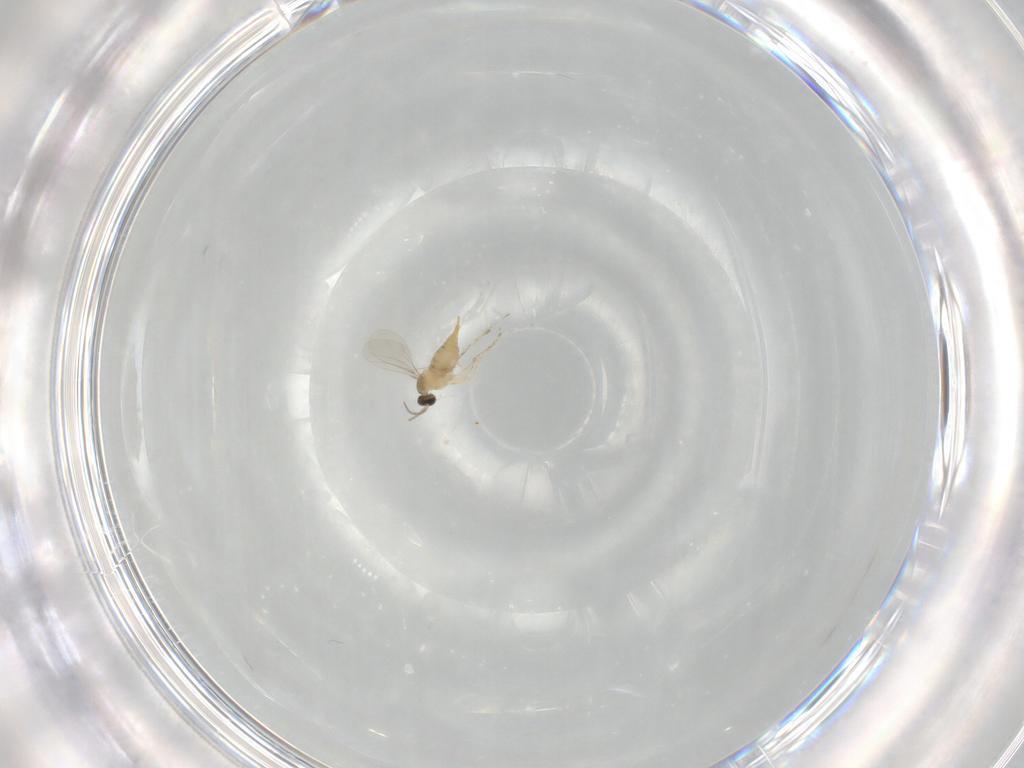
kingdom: Animalia
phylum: Arthropoda
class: Insecta
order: Diptera
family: Cecidomyiidae
